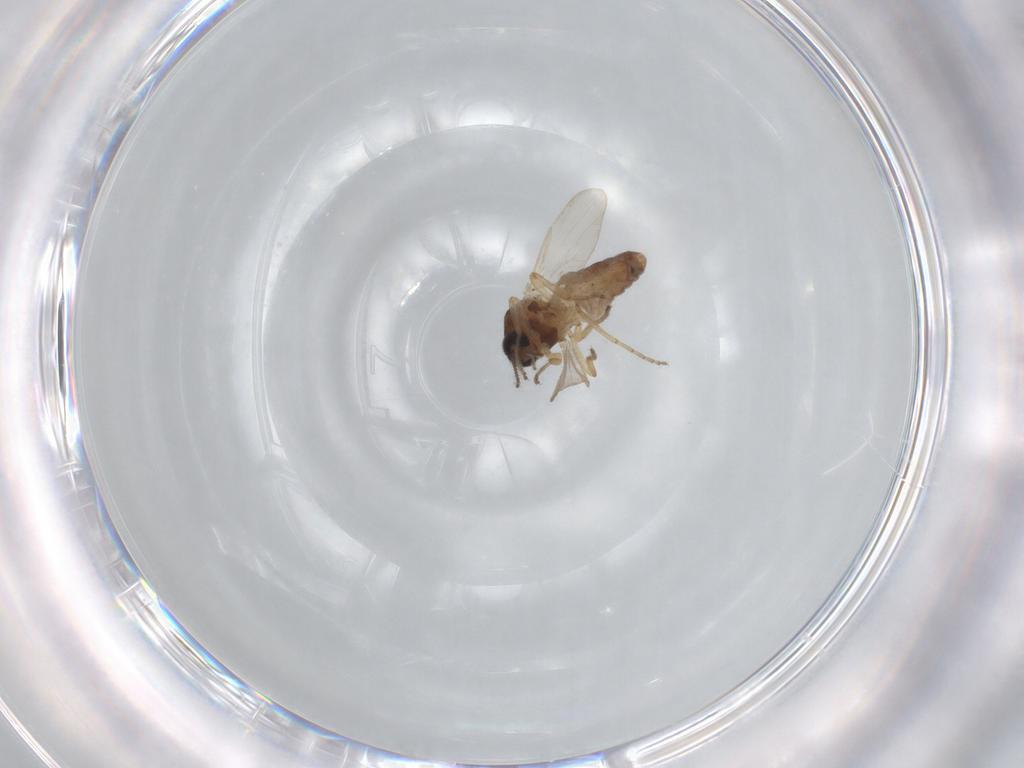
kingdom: Animalia
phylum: Arthropoda
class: Insecta
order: Diptera
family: Ceratopogonidae
